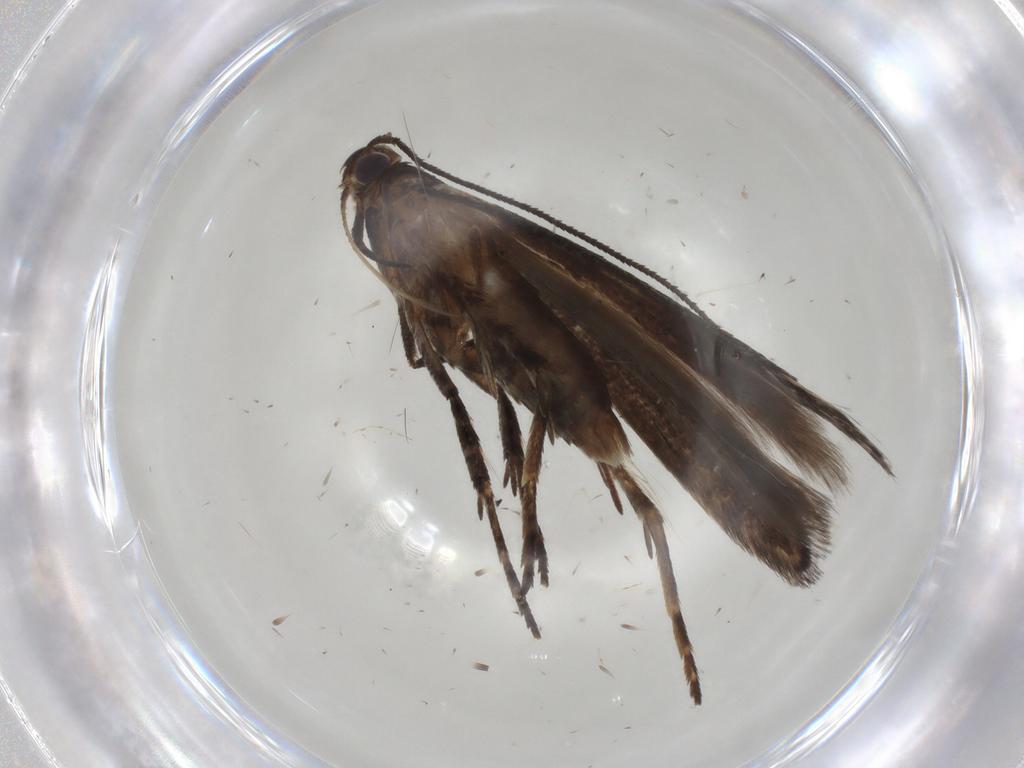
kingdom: Animalia
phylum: Arthropoda
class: Insecta
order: Lepidoptera
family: Gelechiidae
